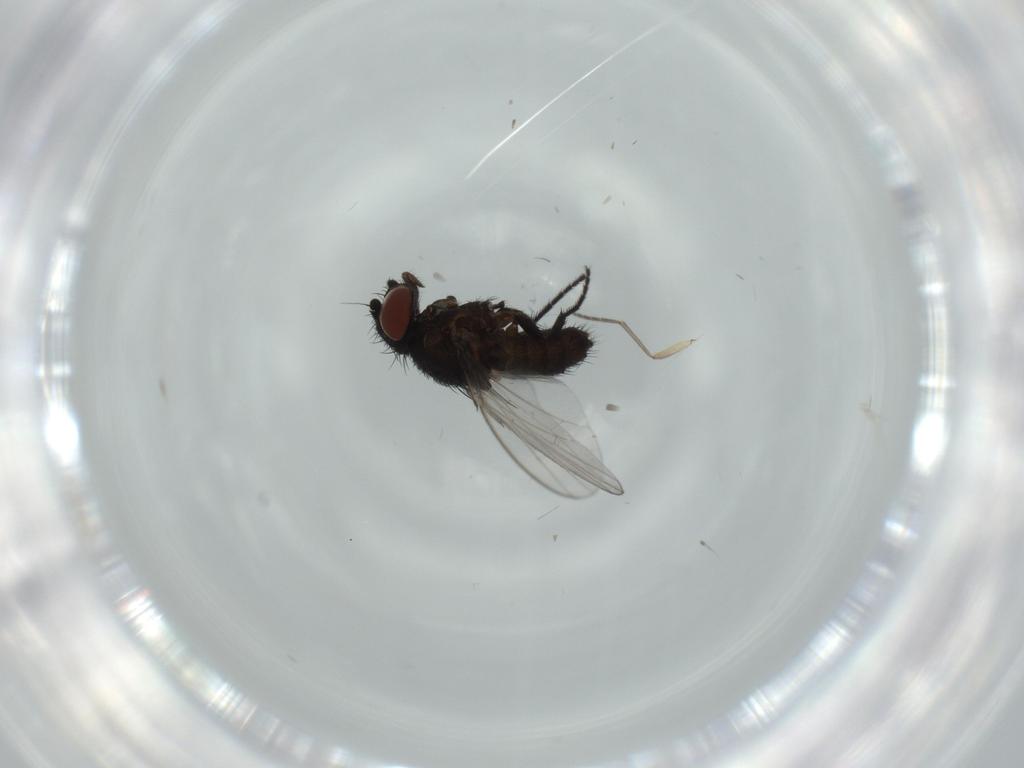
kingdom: Animalia
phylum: Arthropoda
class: Insecta
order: Diptera
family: Milichiidae
